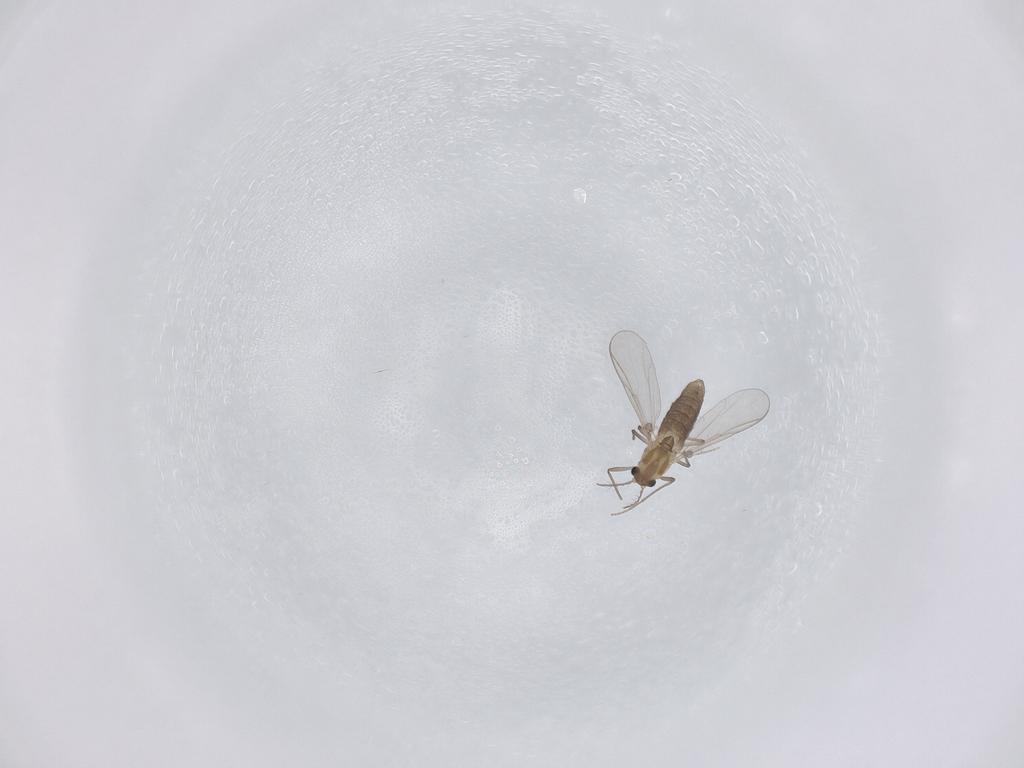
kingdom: Animalia
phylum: Arthropoda
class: Insecta
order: Diptera
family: Chironomidae
